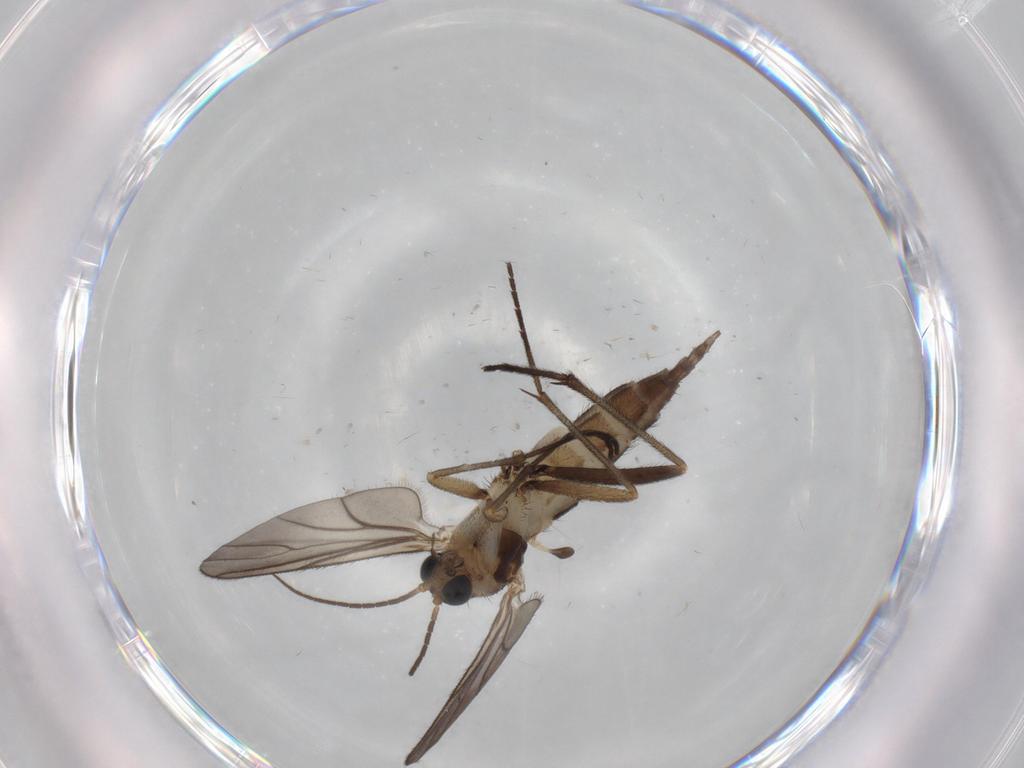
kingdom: Animalia
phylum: Arthropoda
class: Insecta
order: Diptera
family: Sciaridae
